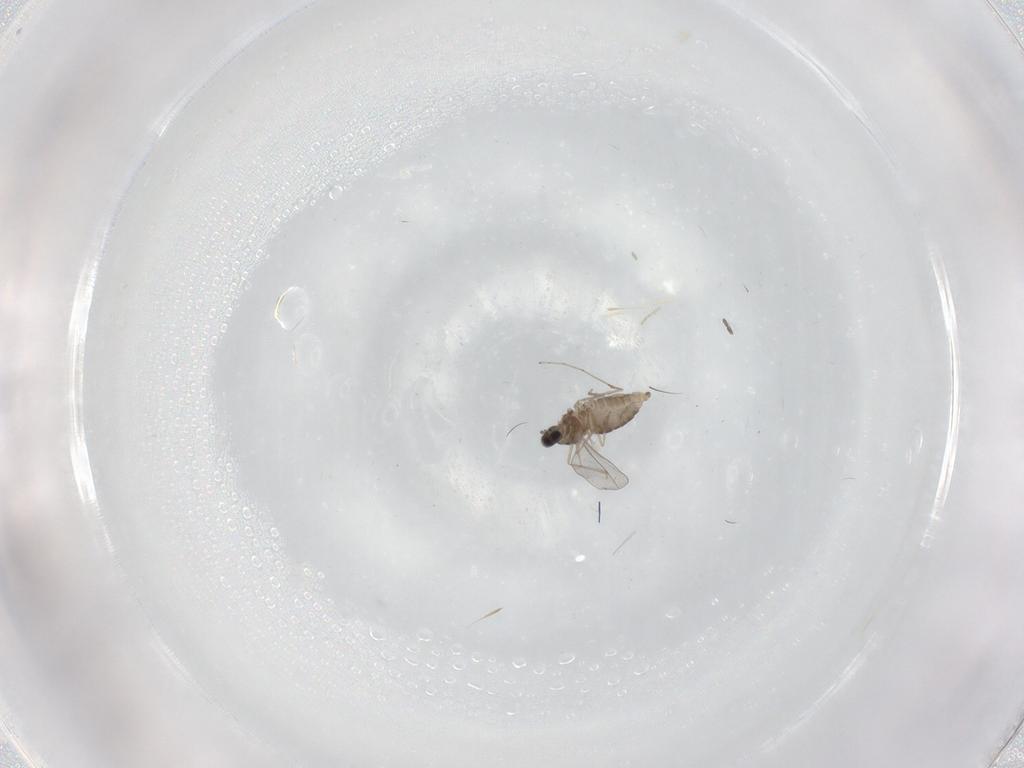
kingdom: Animalia
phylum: Arthropoda
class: Insecta
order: Diptera
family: Cecidomyiidae
